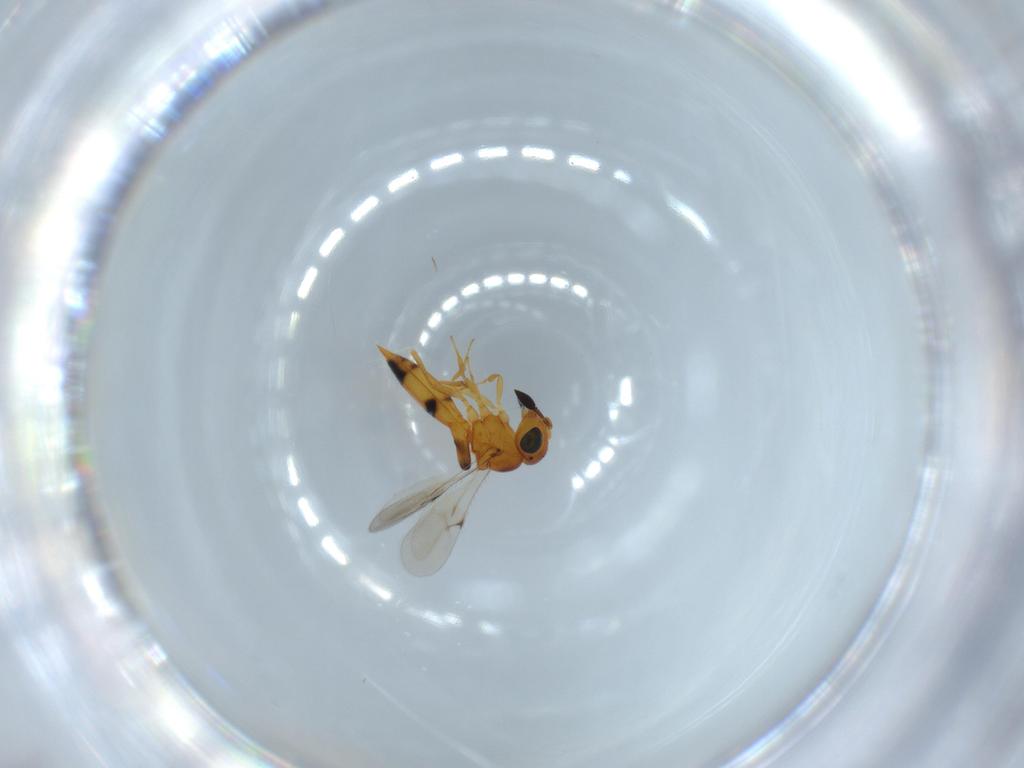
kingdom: Animalia
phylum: Arthropoda
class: Insecta
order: Hymenoptera
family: Scelionidae
